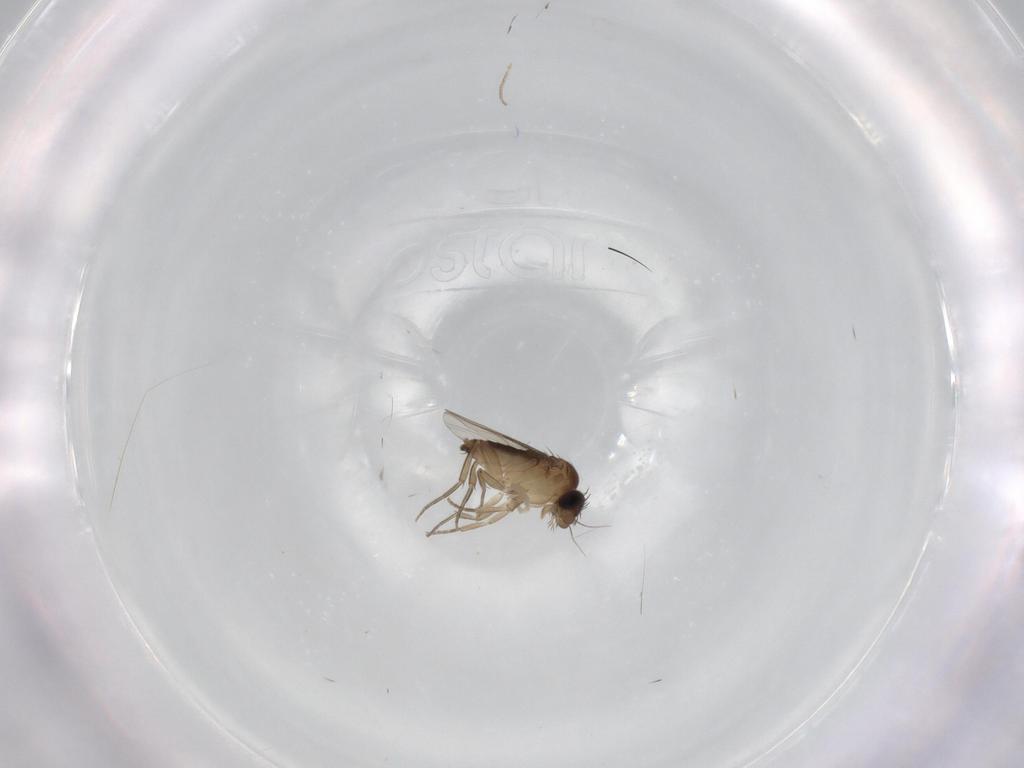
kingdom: Animalia
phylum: Arthropoda
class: Insecta
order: Diptera
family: Phoridae
